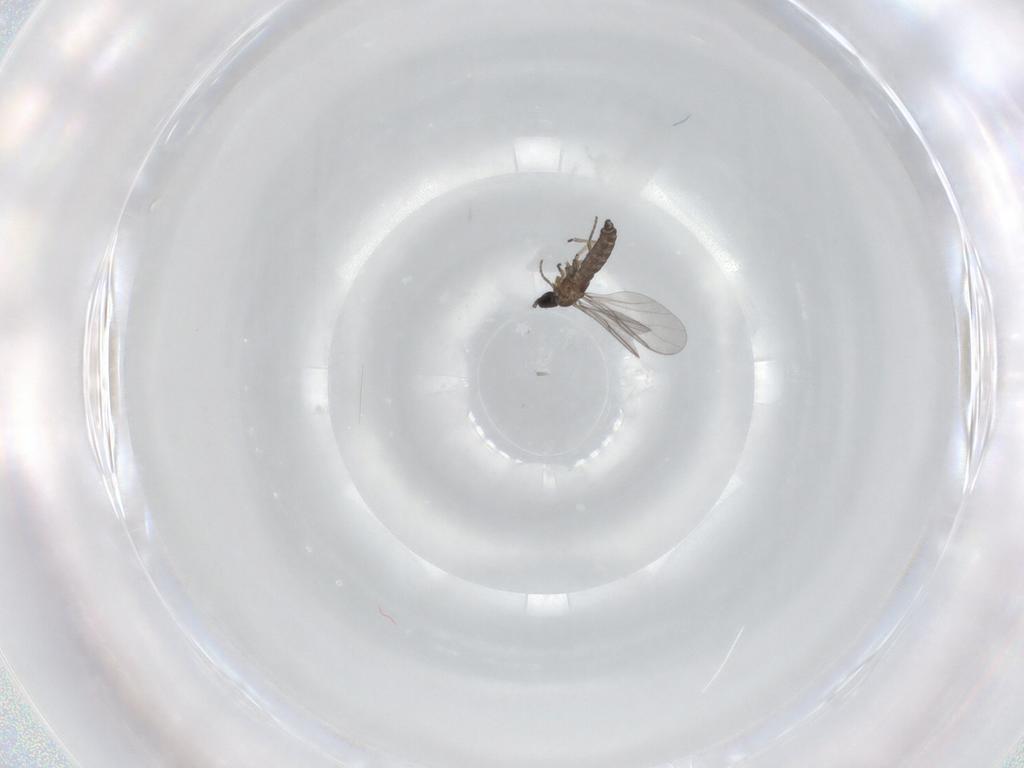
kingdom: Animalia
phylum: Arthropoda
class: Insecta
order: Diptera
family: Sciaridae
